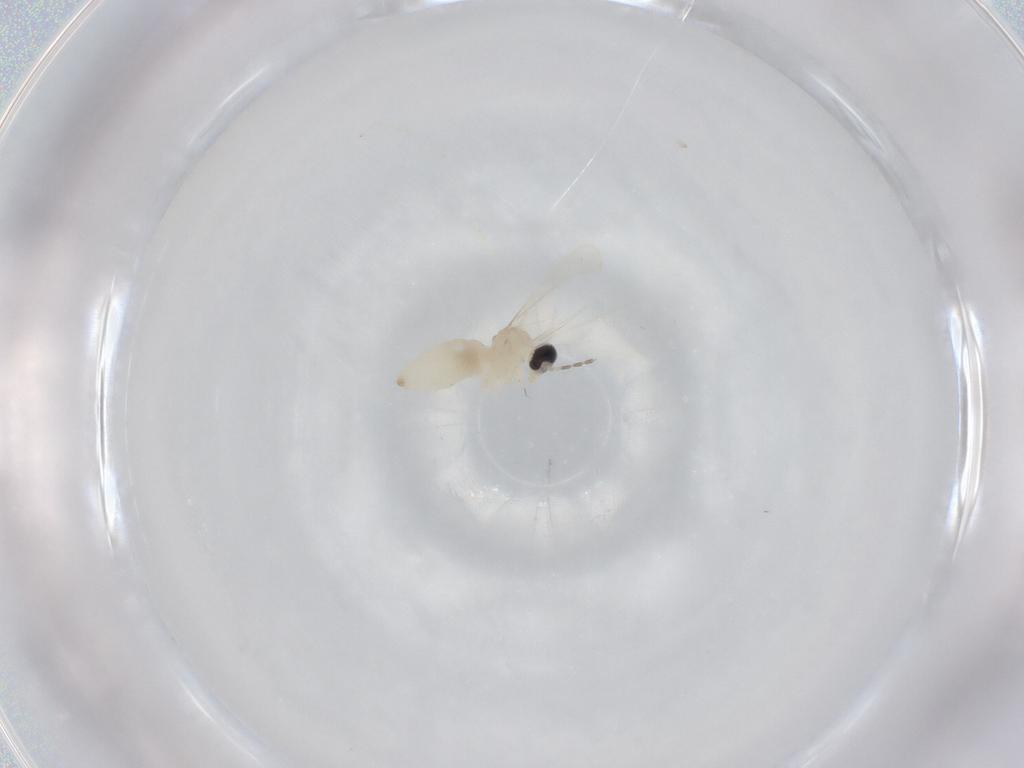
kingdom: Animalia
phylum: Arthropoda
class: Insecta
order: Diptera
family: Cecidomyiidae
